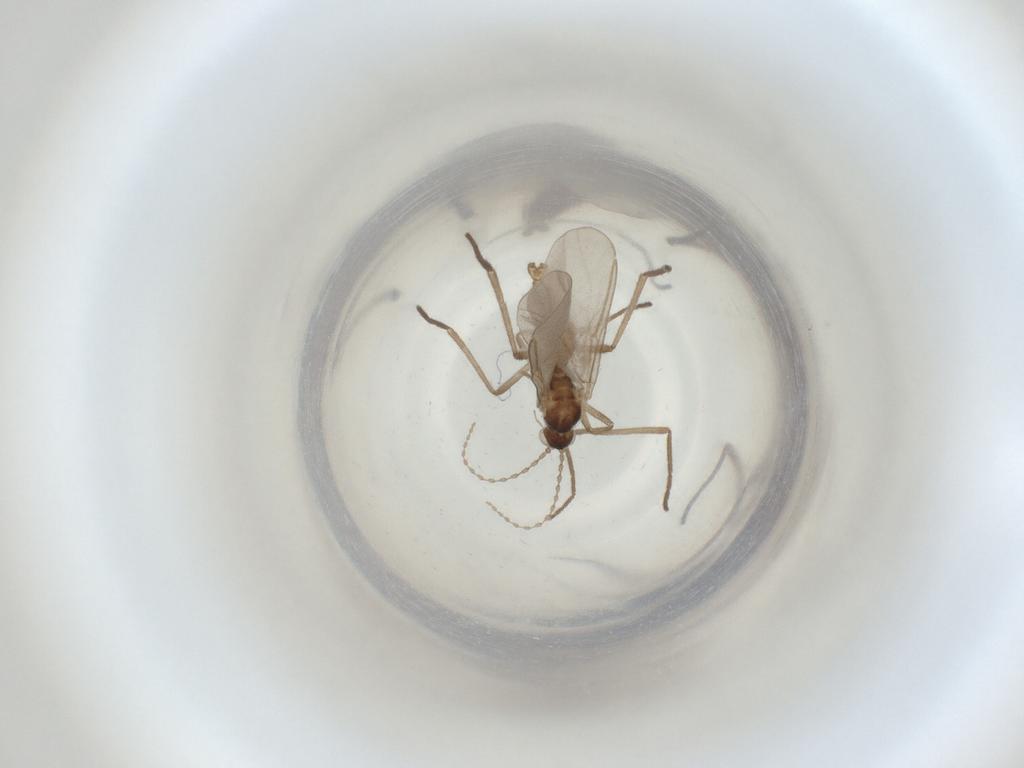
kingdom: Animalia
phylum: Arthropoda
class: Insecta
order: Diptera
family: Cecidomyiidae
